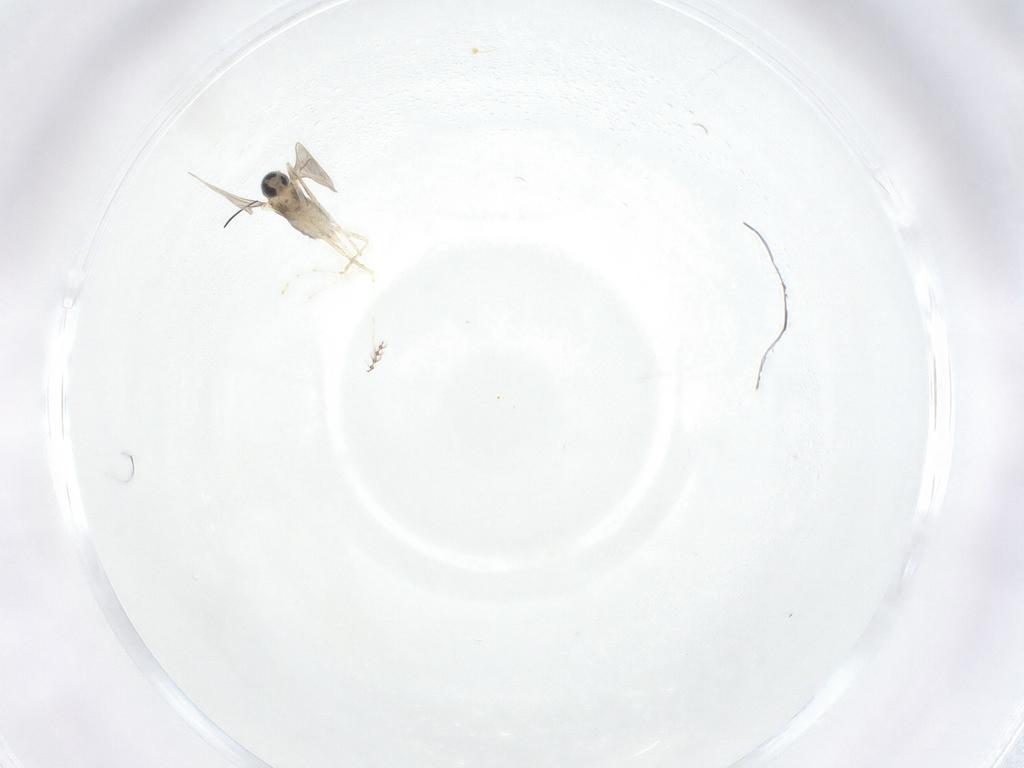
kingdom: Animalia
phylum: Arthropoda
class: Insecta
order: Diptera
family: Cecidomyiidae
